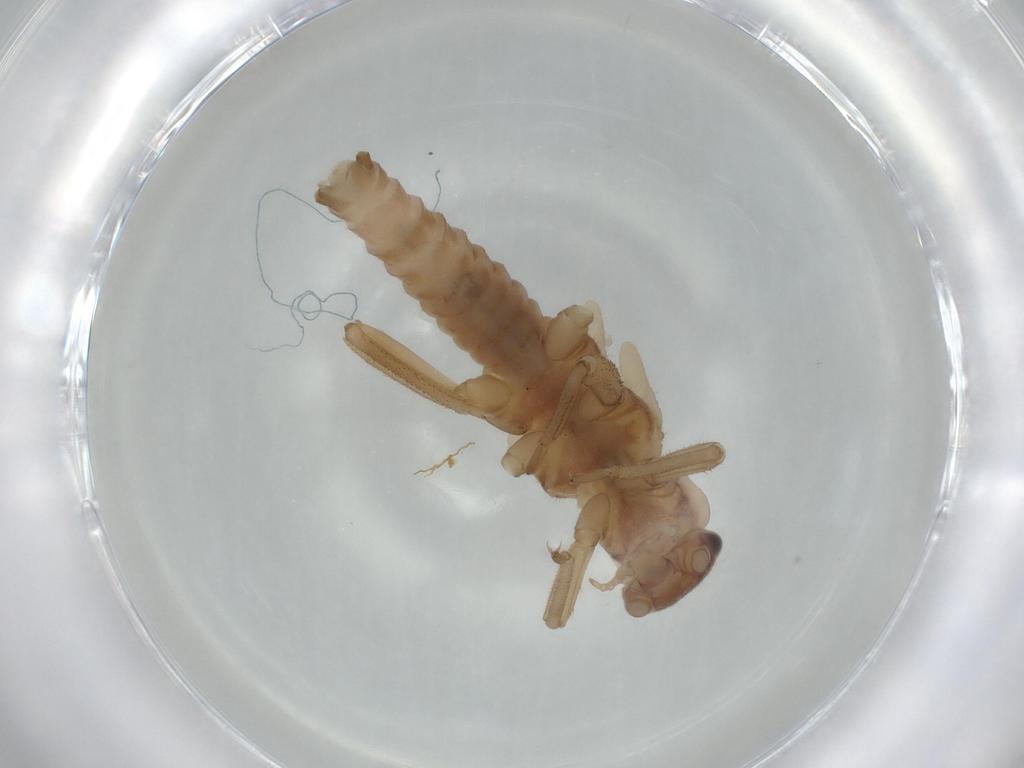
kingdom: Animalia
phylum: Arthropoda
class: Insecta
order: Plecoptera
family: Nemouridae
